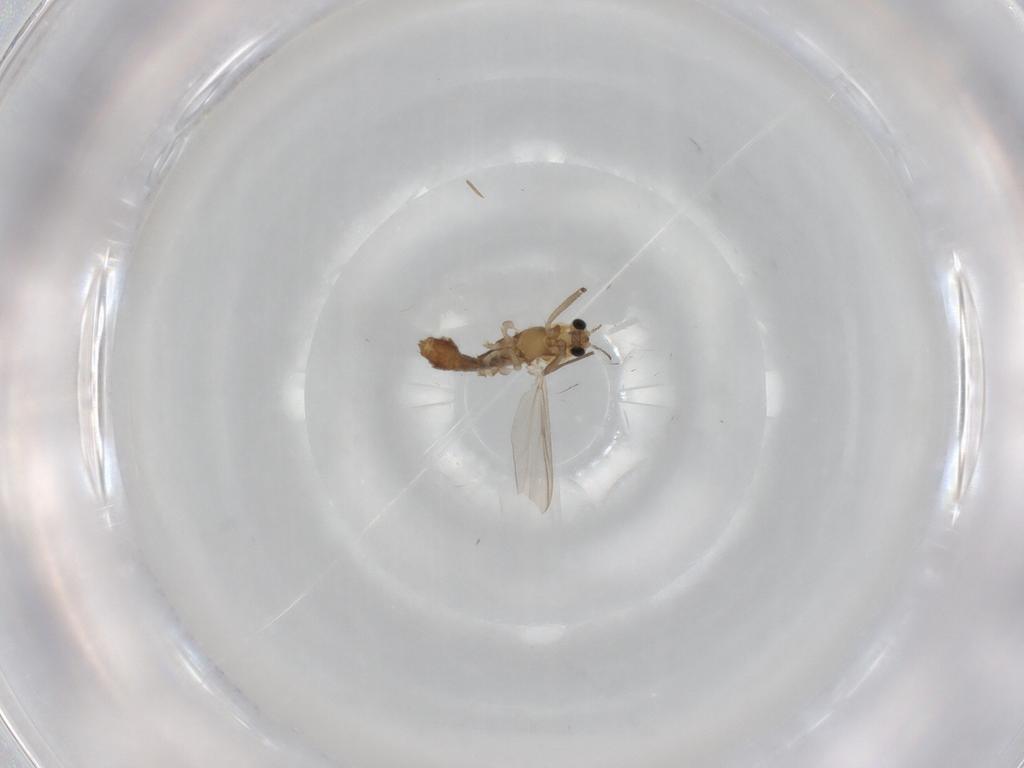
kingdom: Animalia
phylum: Arthropoda
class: Insecta
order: Diptera
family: Chironomidae
